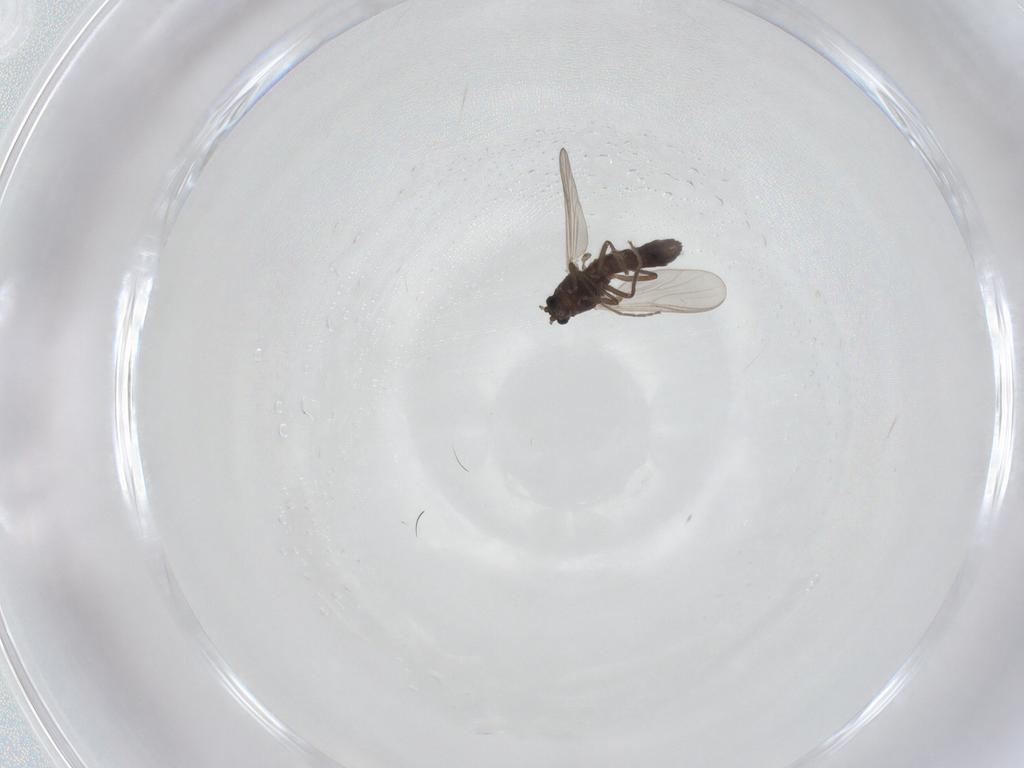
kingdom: Animalia
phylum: Arthropoda
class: Insecta
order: Diptera
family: Chironomidae
